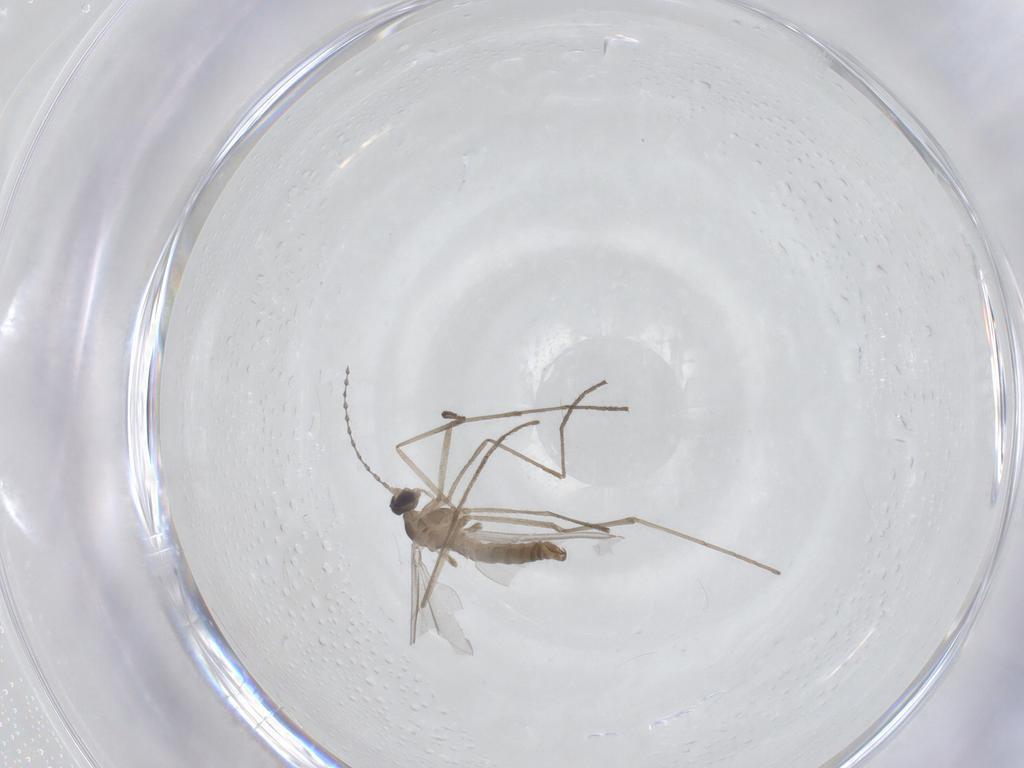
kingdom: Animalia
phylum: Arthropoda
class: Insecta
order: Diptera
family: Cecidomyiidae
